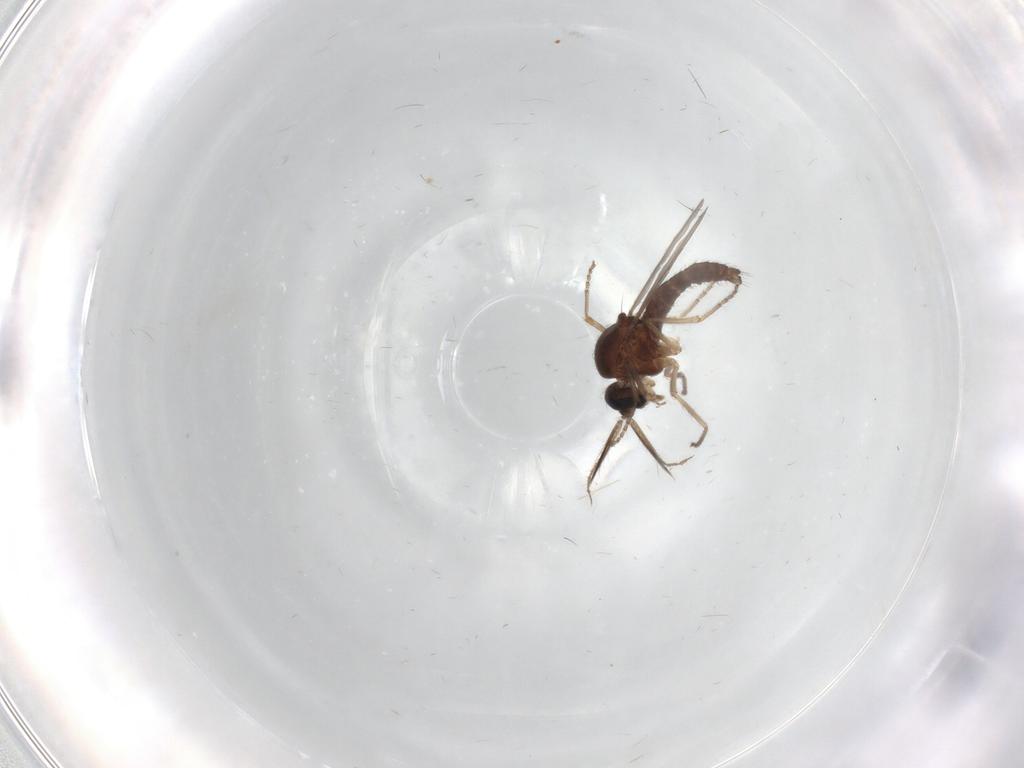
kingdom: Animalia
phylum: Arthropoda
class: Insecta
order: Diptera
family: Ceratopogonidae
